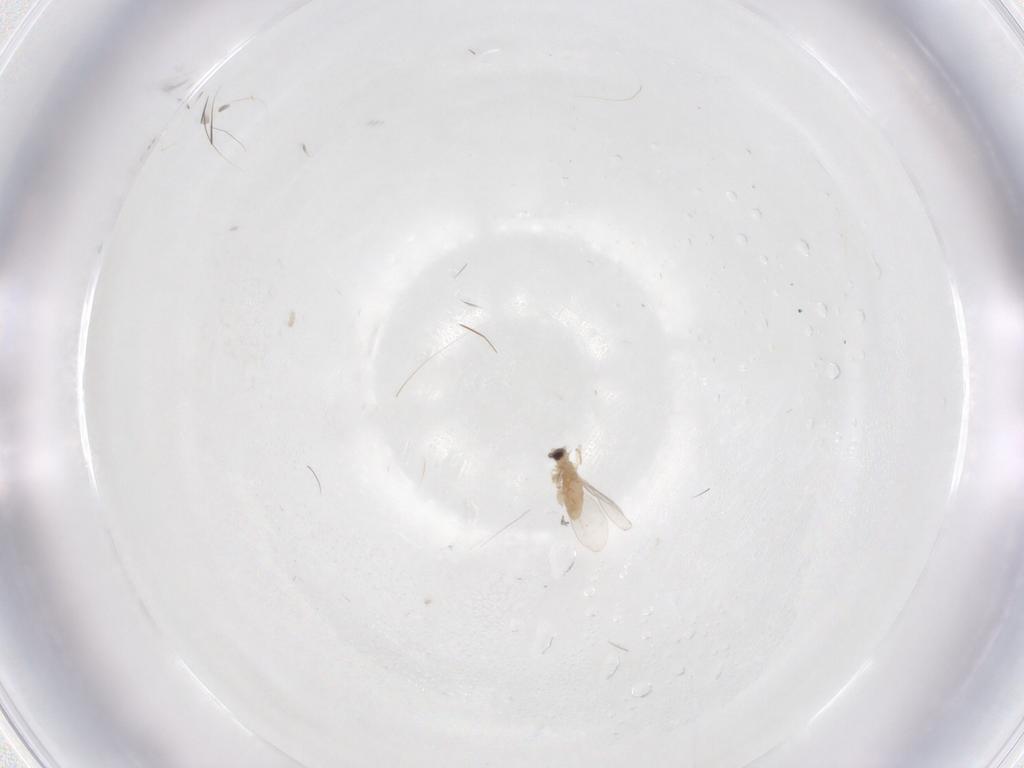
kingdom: Animalia
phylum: Arthropoda
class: Insecta
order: Diptera
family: Cecidomyiidae
